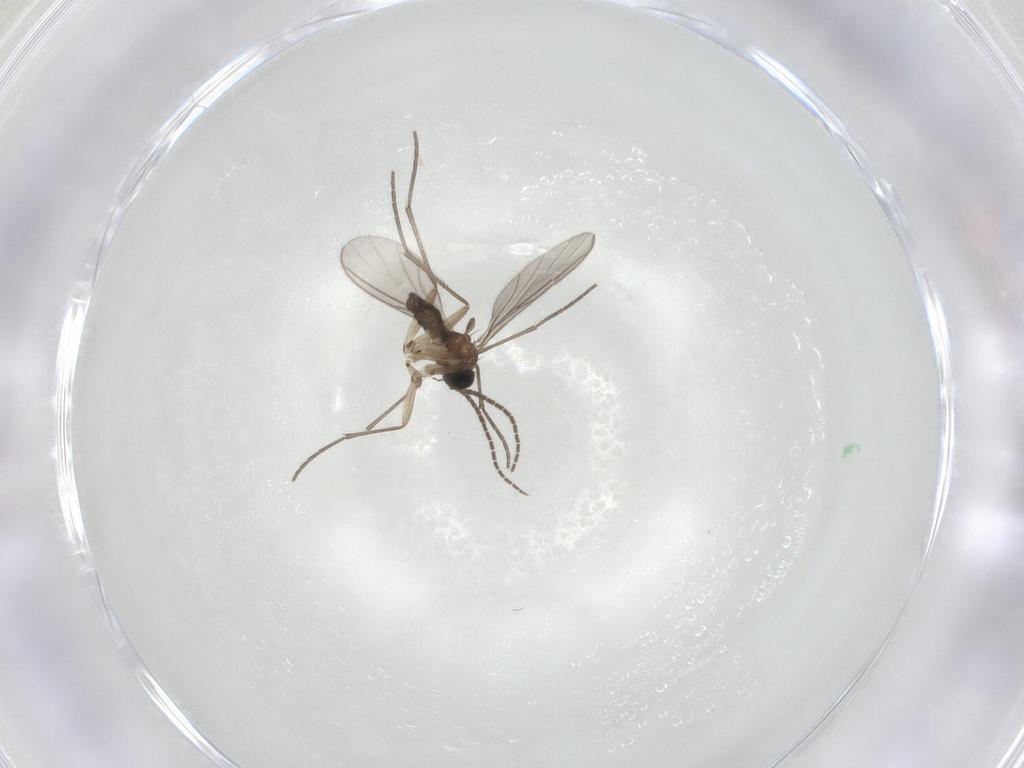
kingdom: Animalia
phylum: Arthropoda
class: Insecta
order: Diptera
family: Sciaridae
